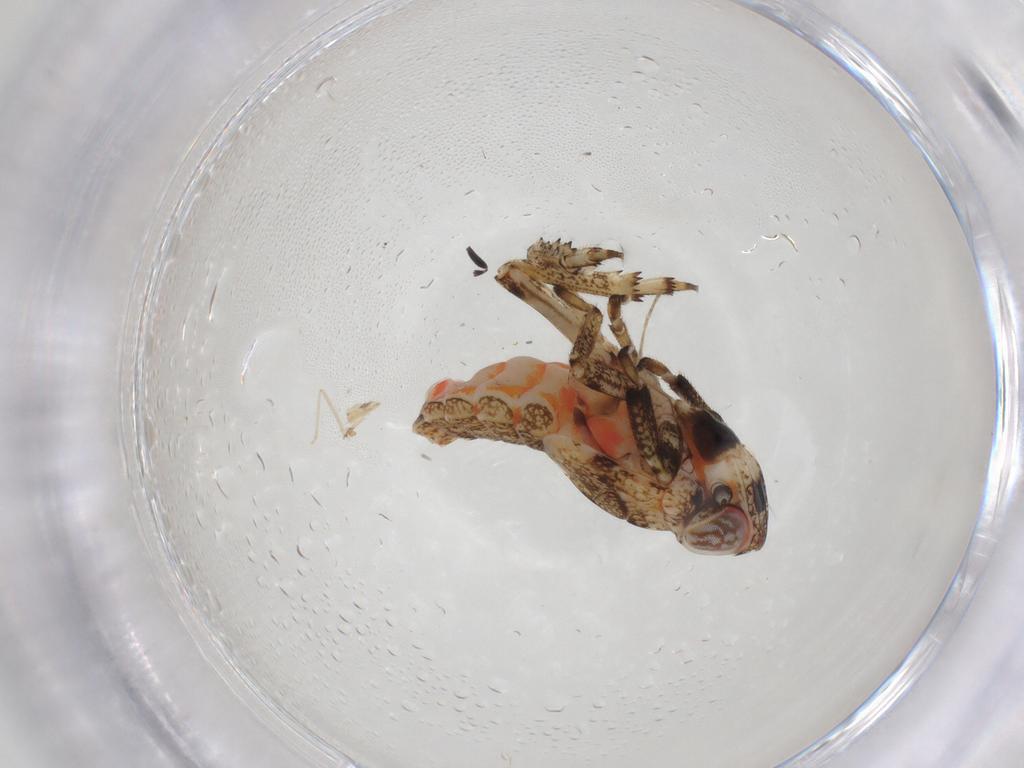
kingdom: Animalia
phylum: Arthropoda
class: Insecta
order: Hemiptera
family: Issidae
